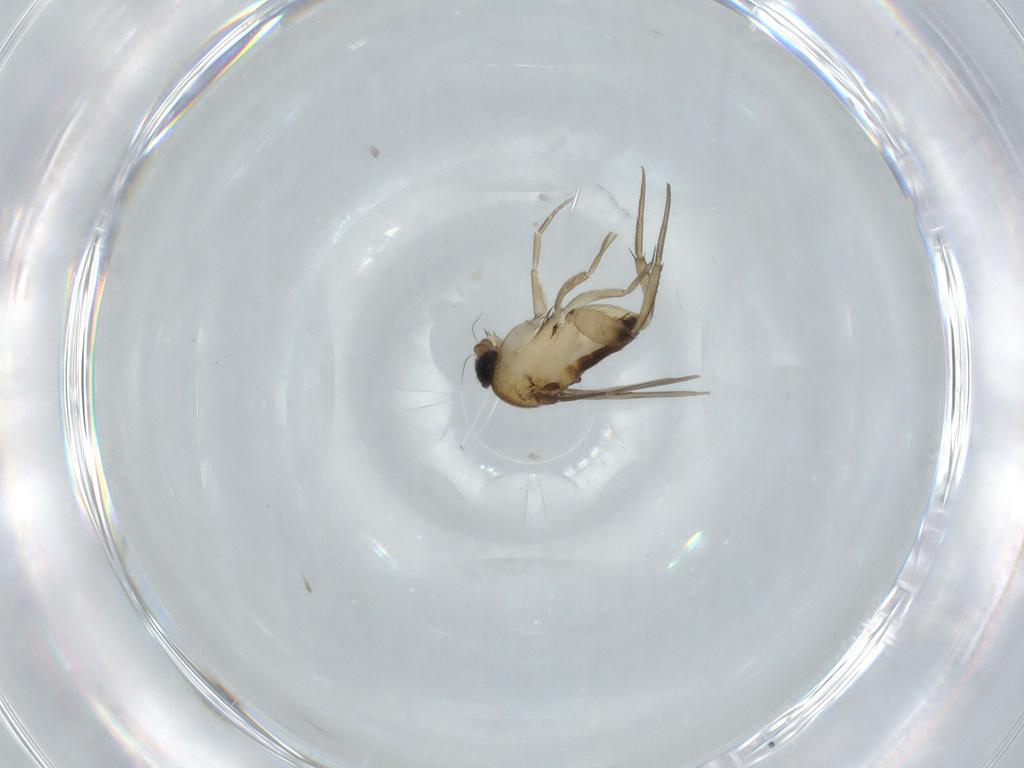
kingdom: Animalia
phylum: Arthropoda
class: Insecta
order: Diptera
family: Phoridae
